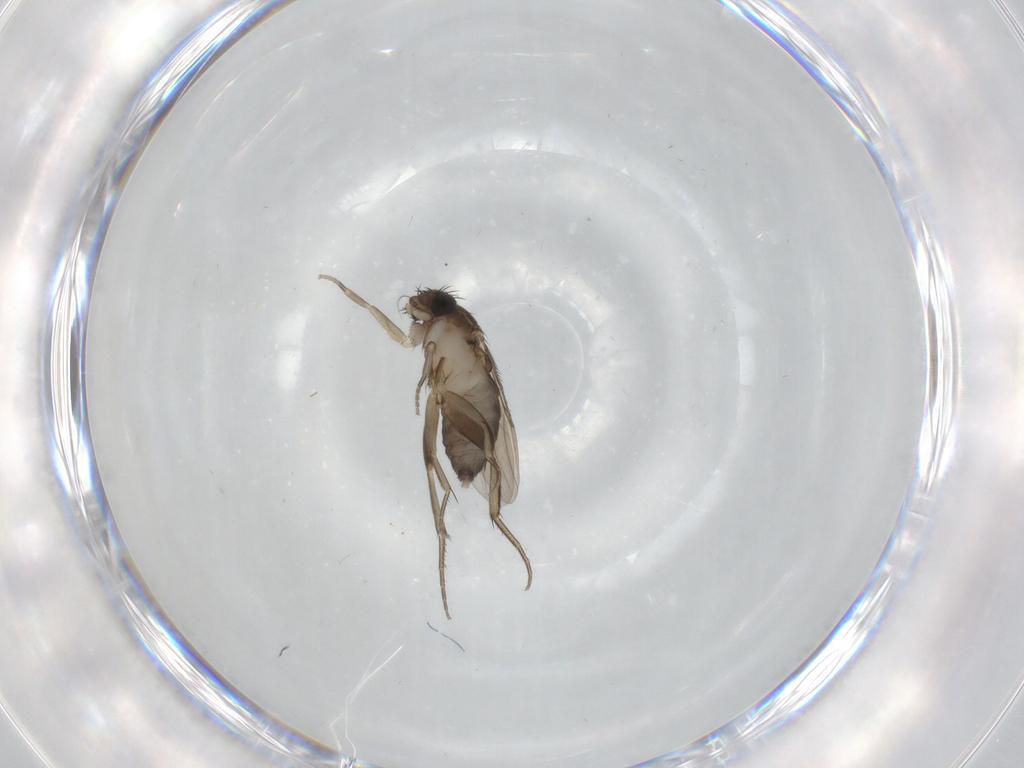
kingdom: Animalia
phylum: Arthropoda
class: Insecta
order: Diptera
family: Phoridae
